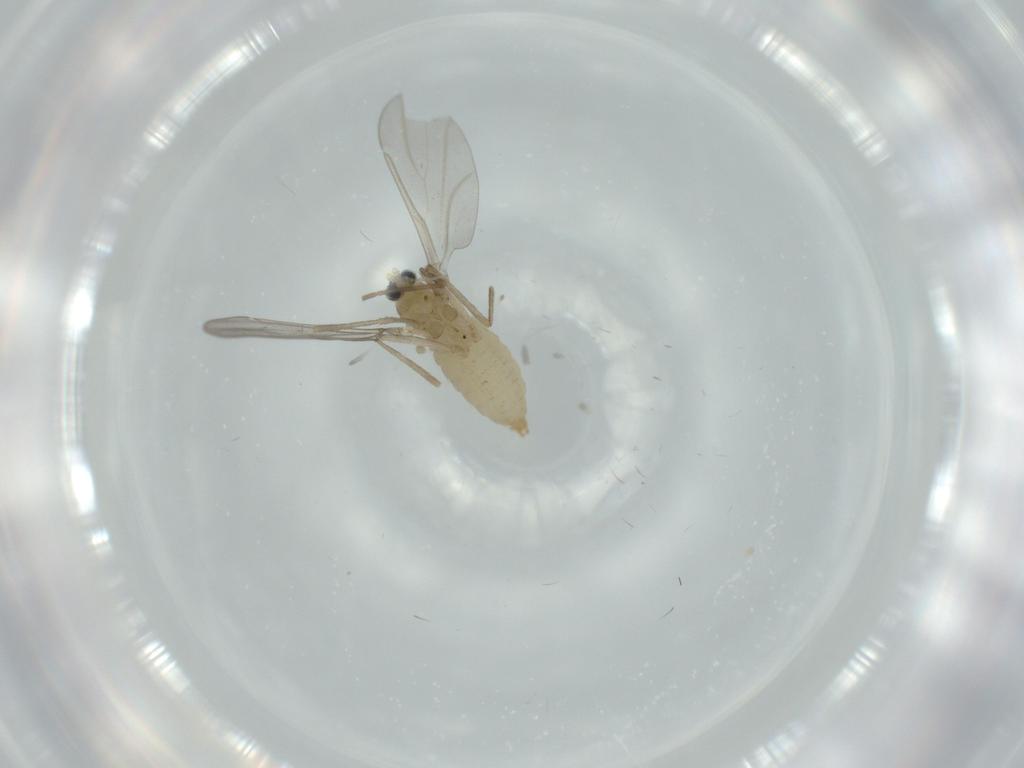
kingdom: Animalia
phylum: Arthropoda
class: Insecta
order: Diptera
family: Cecidomyiidae
